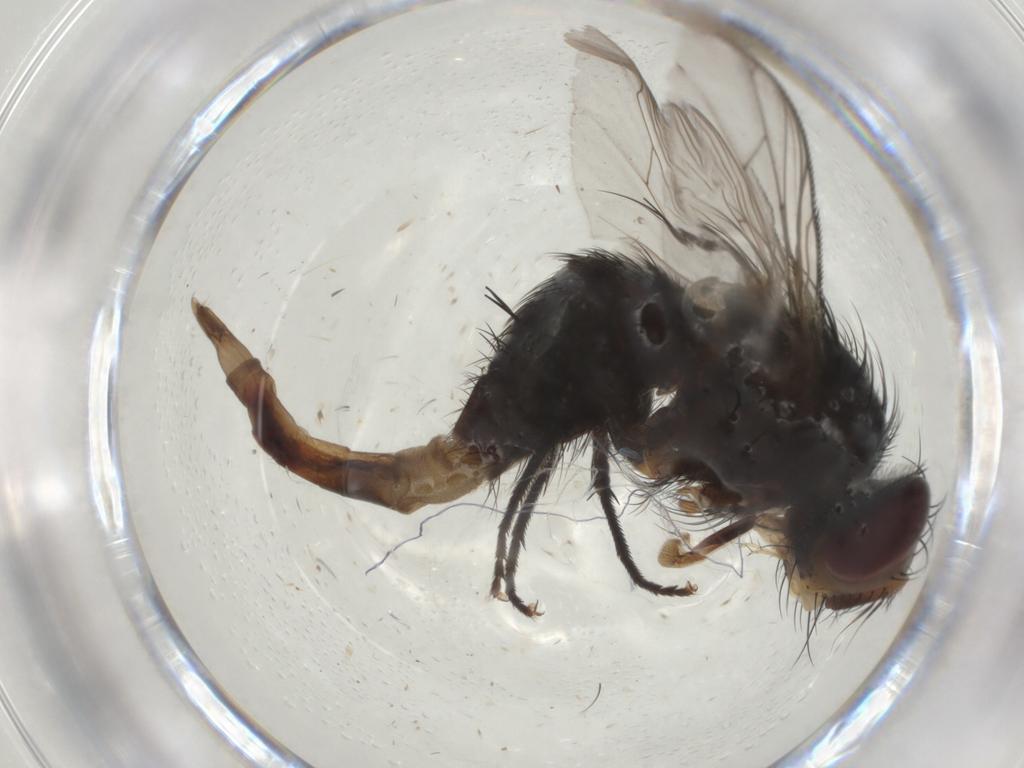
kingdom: Animalia
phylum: Arthropoda
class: Insecta
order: Diptera
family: Tachinidae
